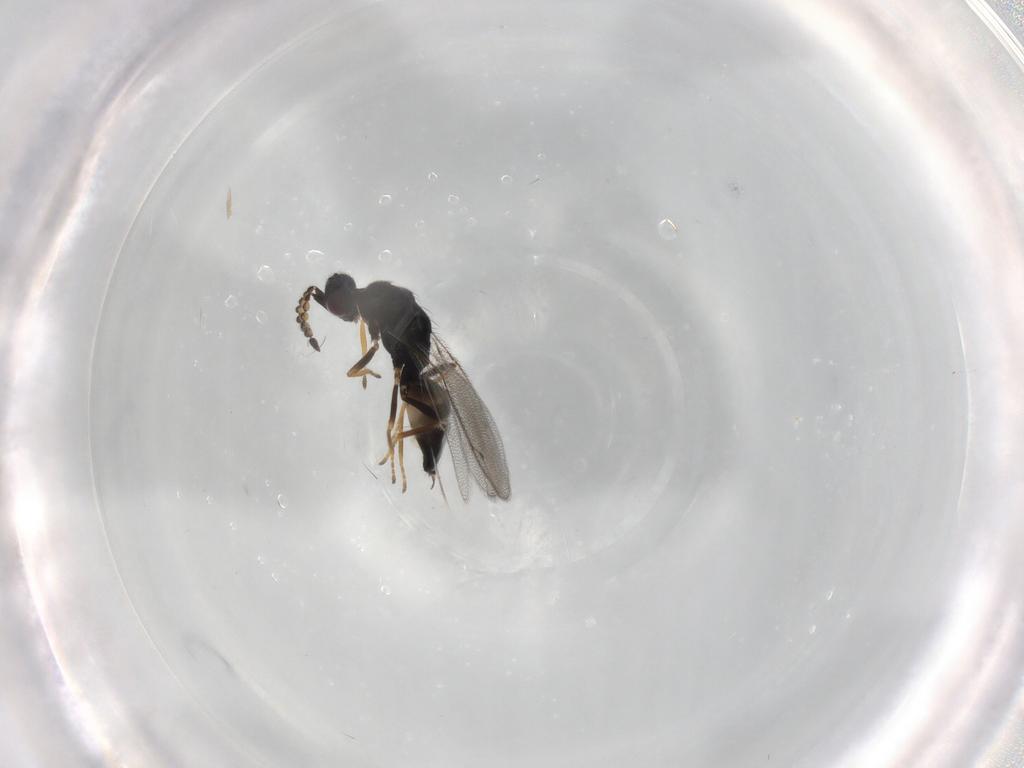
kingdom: Animalia
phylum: Arthropoda
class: Insecta
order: Hymenoptera
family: Eulophidae
